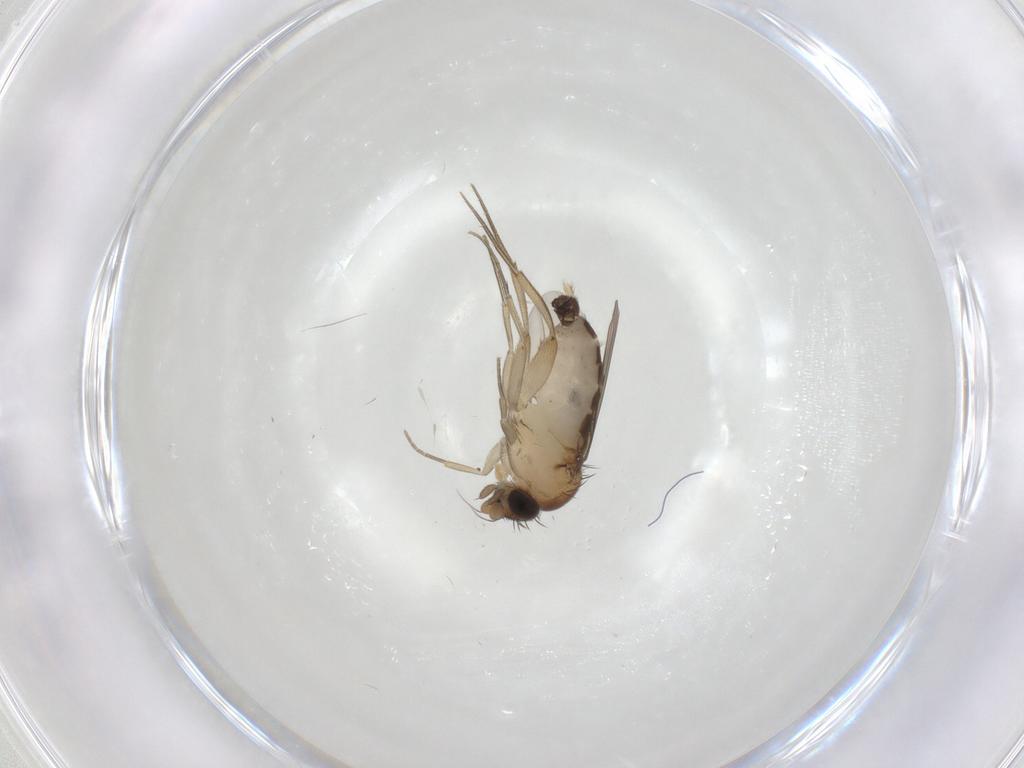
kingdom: Animalia
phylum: Arthropoda
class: Insecta
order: Diptera
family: Phoridae
